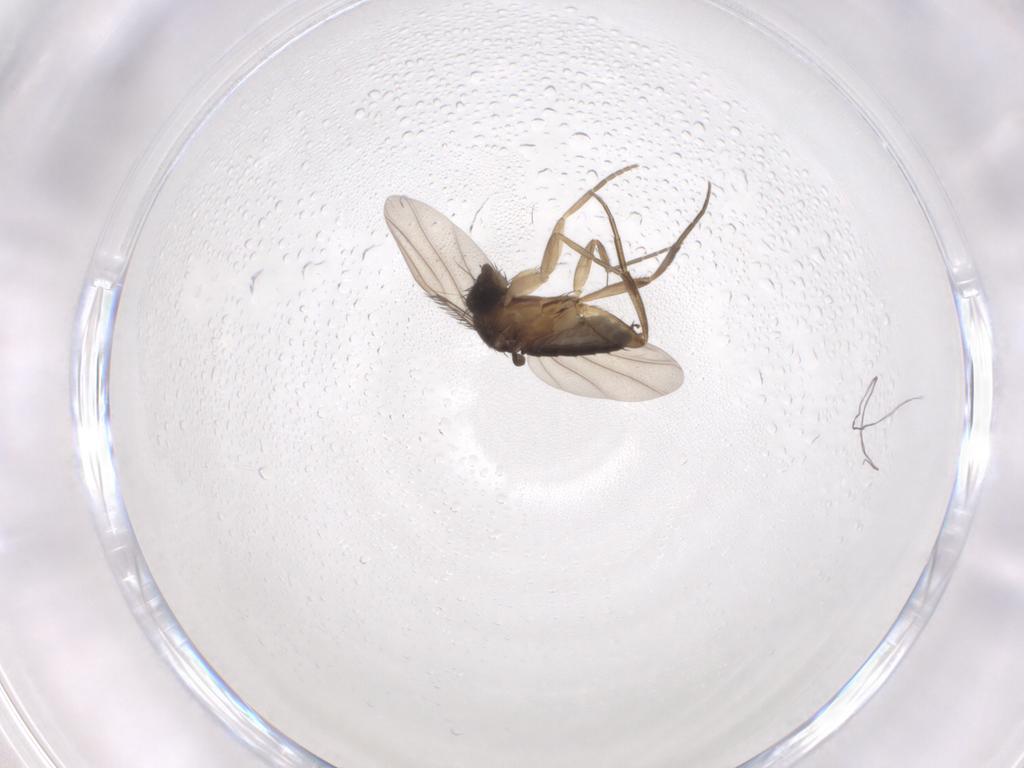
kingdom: Animalia
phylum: Arthropoda
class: Insecta
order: Diptera
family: Phoridae
